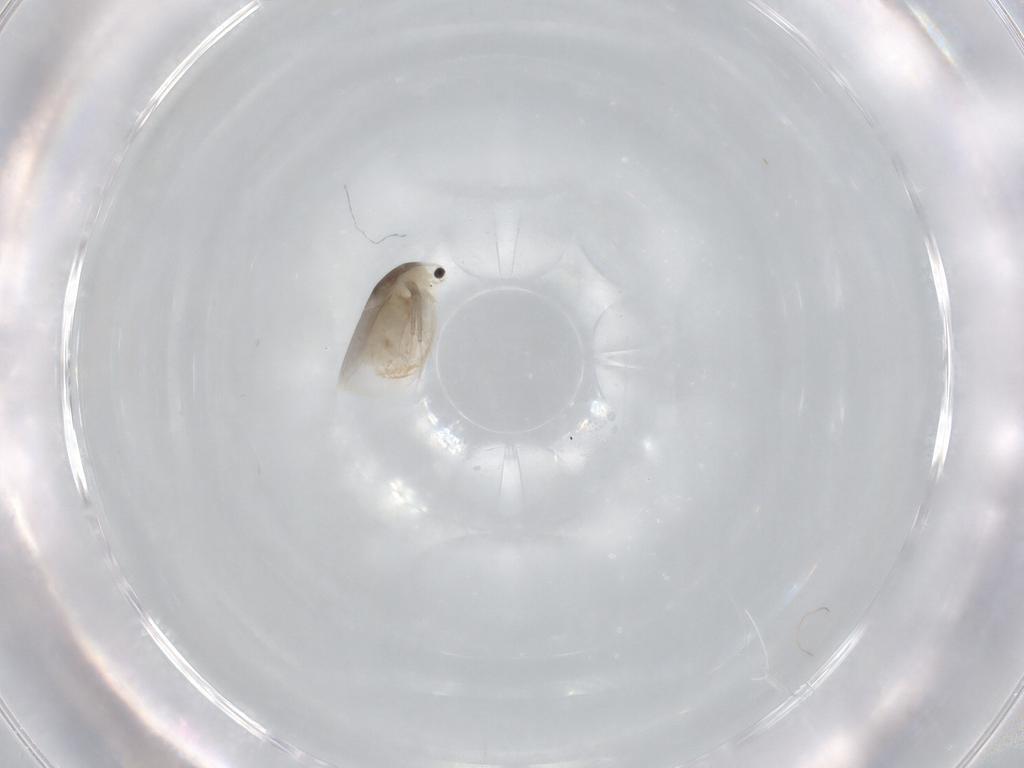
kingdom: Animalia
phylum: Arthropoda
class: Branchiopoda
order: Diplostraca
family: Daphniidae
